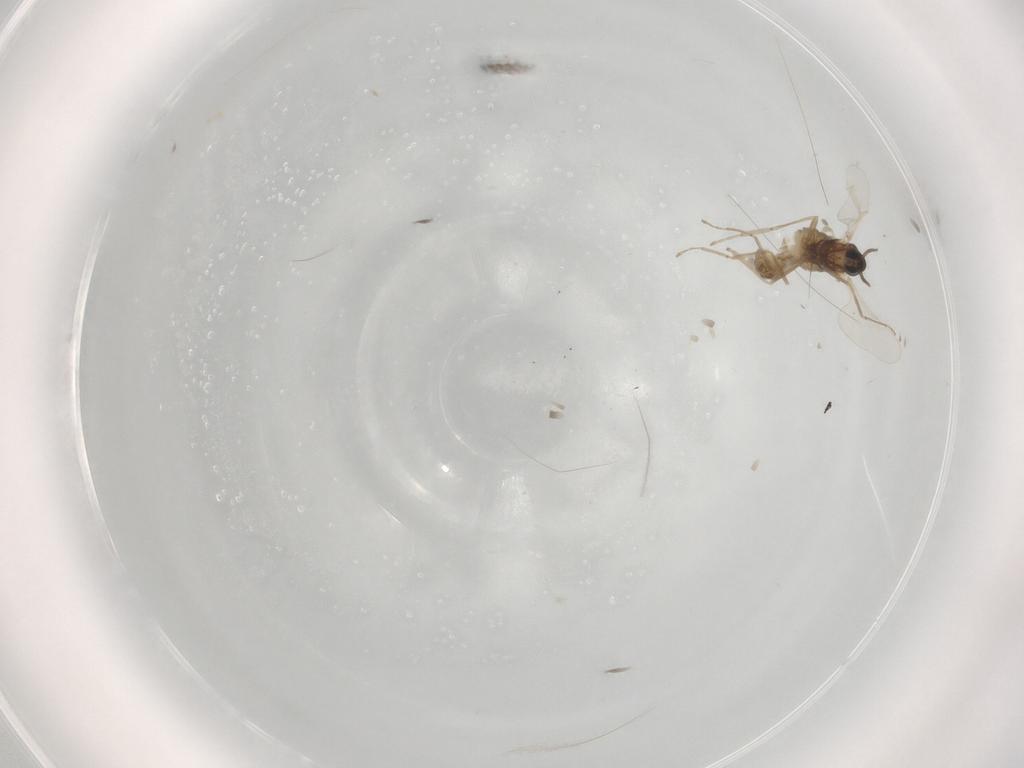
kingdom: Animalia
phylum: Arthropoda
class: Insecta
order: Diptera
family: Cecidomyiidae
